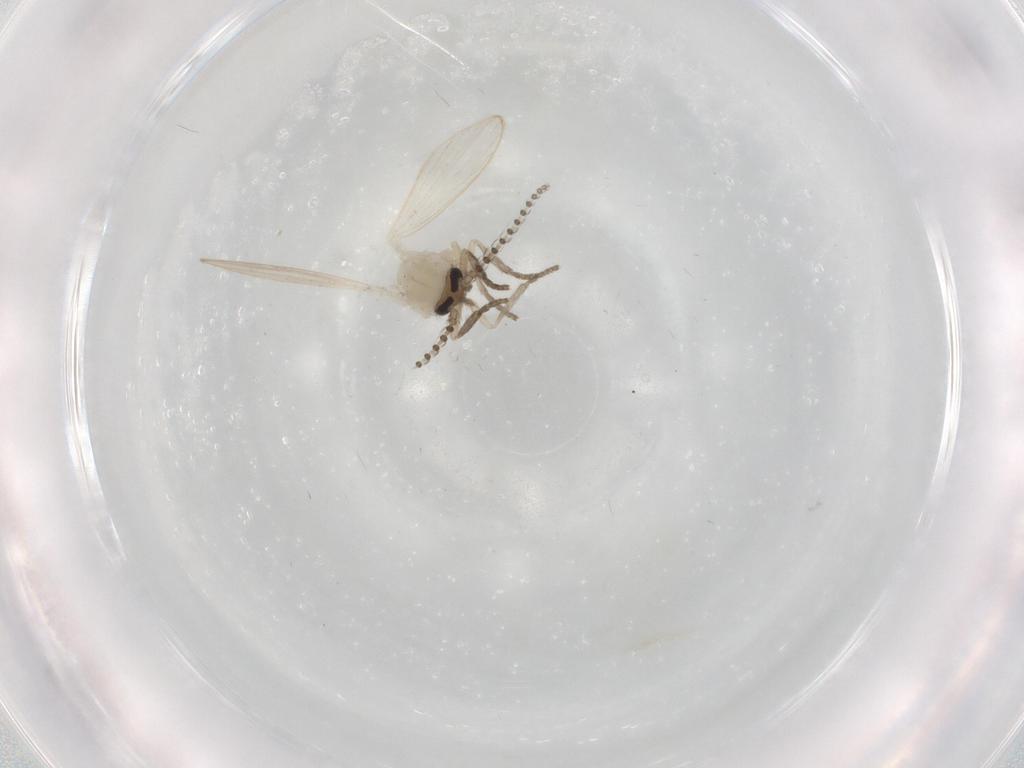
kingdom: Animalia
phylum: Arthropoda
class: Insecta
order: Diptera
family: Psychodidae
